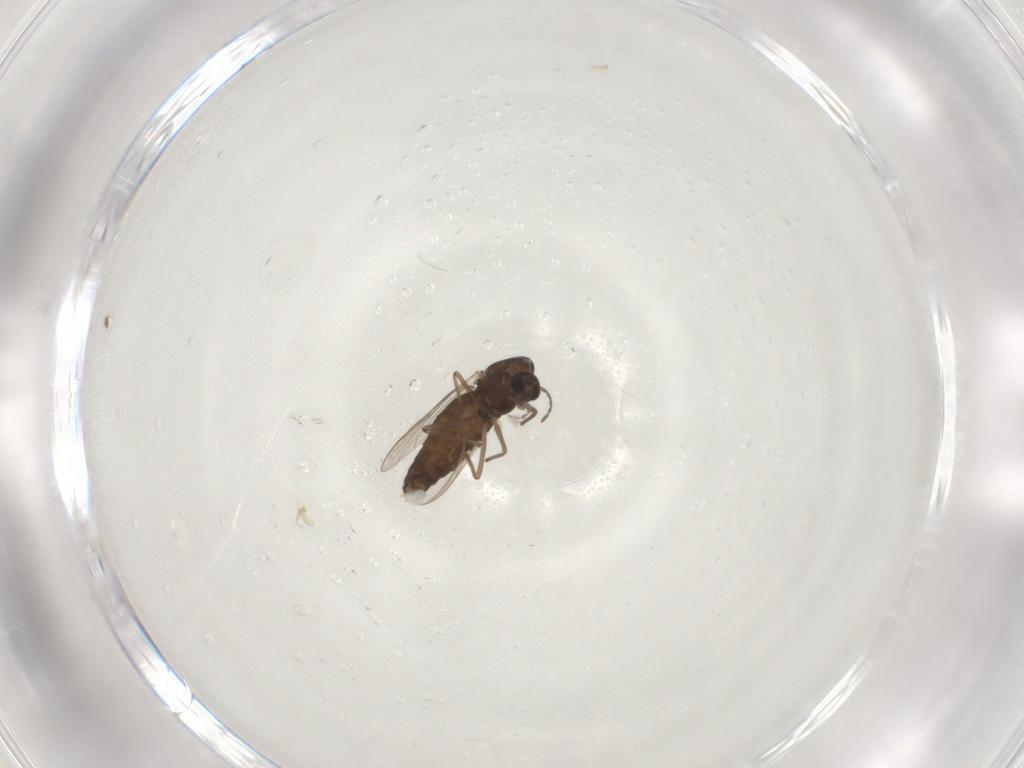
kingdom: Animalia
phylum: Arthropoda
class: Insecta
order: Diptera
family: Chironomidae
